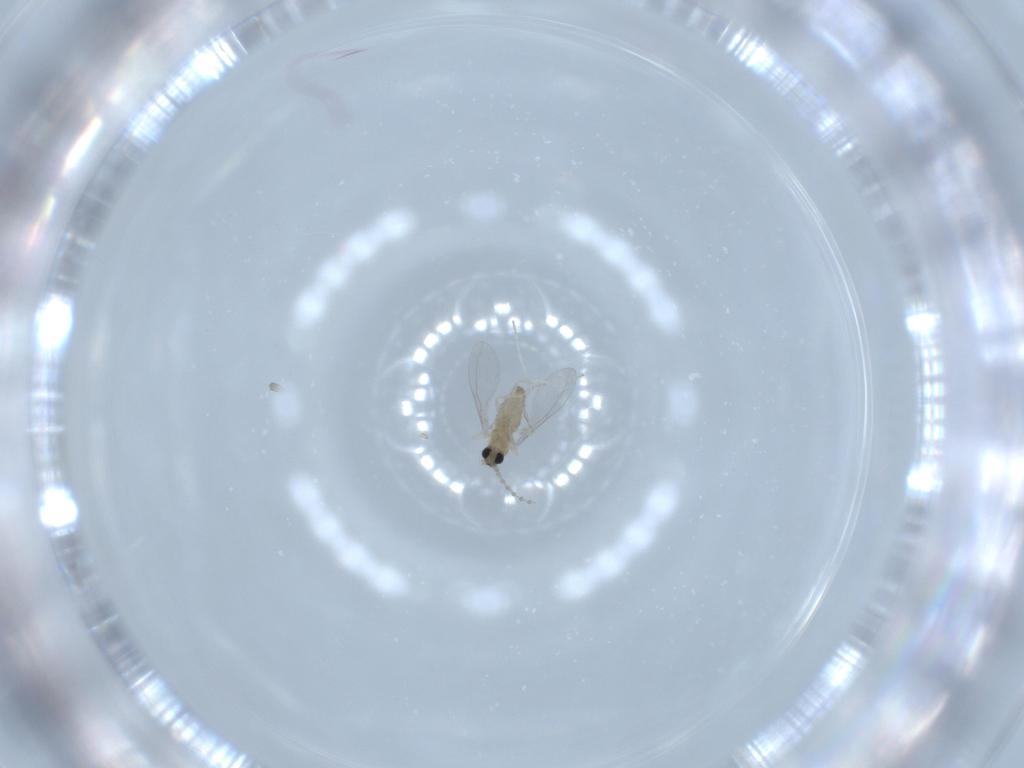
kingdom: Animalia
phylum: Arthropoda
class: Insecta
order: Diptera
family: Cecidomyiidae
